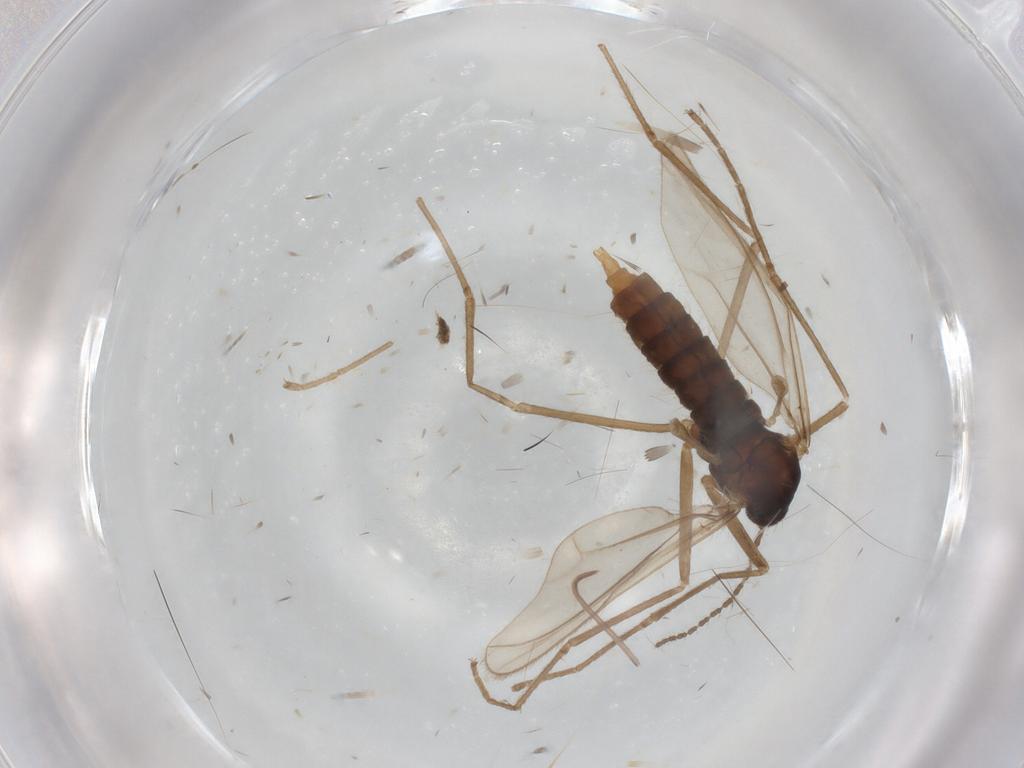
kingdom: Animalia
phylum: Arthropoda
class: Insecta
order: Diptera
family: Cecidomyiidae
